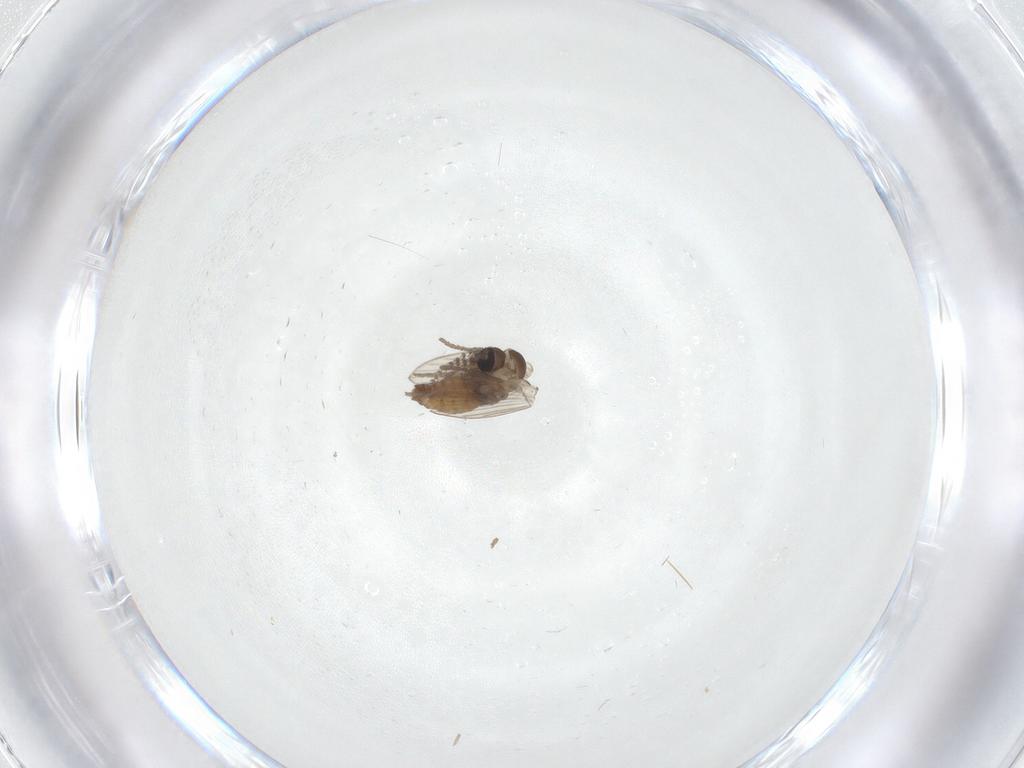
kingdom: Animalia
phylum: Arthropoda
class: Insecta
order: Diptera
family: Psychodidae
